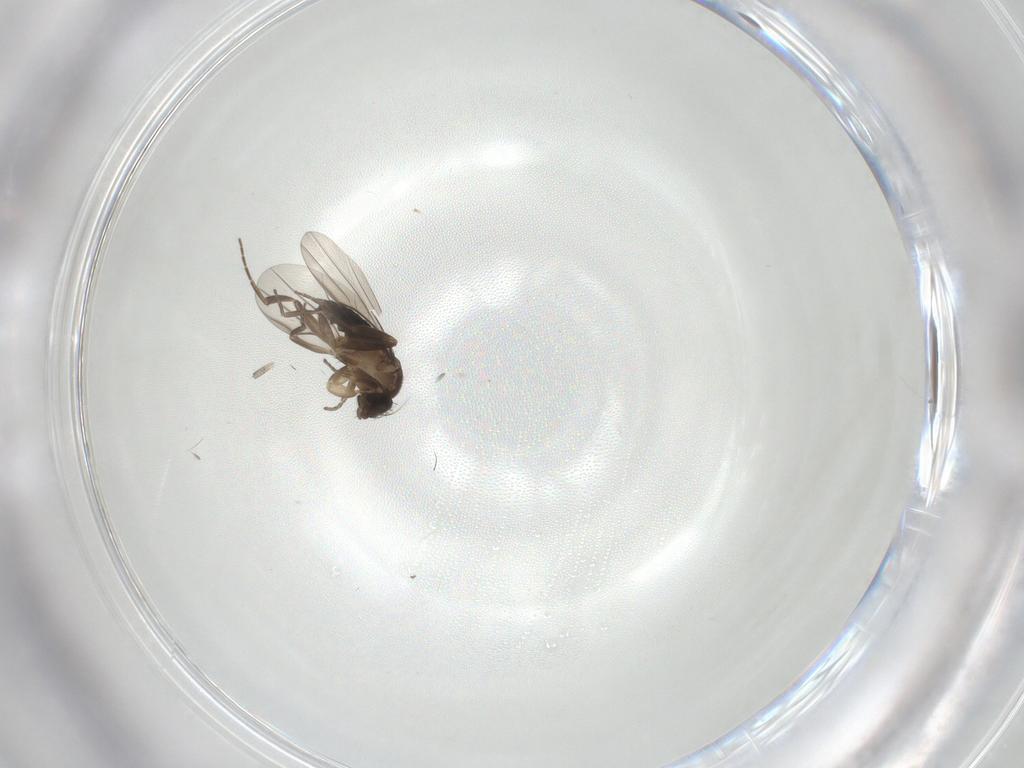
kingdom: Animalia
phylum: Arthropoda
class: Insecta
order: Diptera
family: Phoridae
